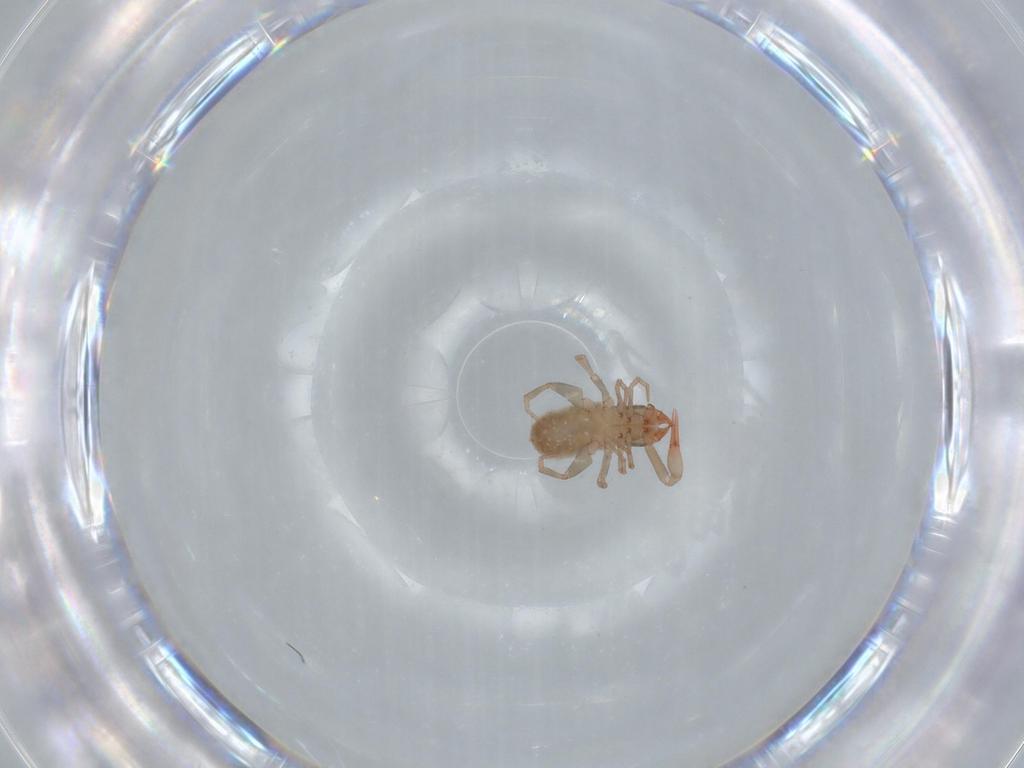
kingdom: Animalia
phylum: Arthropoda
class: Arachnida
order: Pseudoscorpiones
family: Chthoniidae
